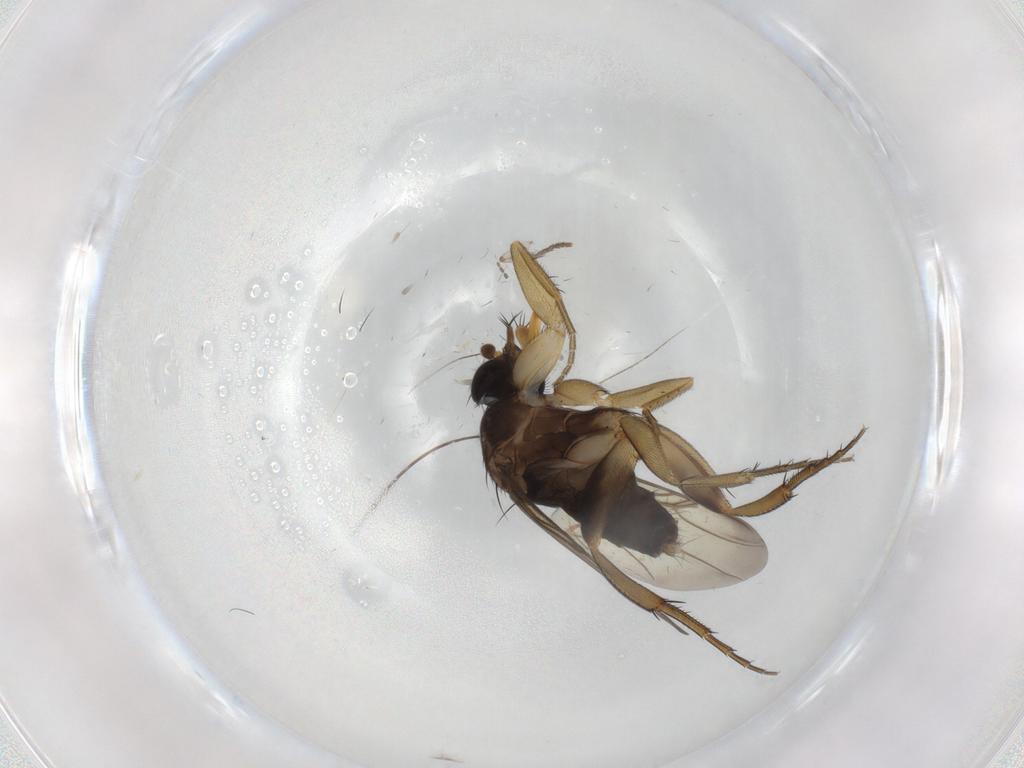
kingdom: Animalia
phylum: Arthropoda
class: Insecta
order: Diptera
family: Phoridae
